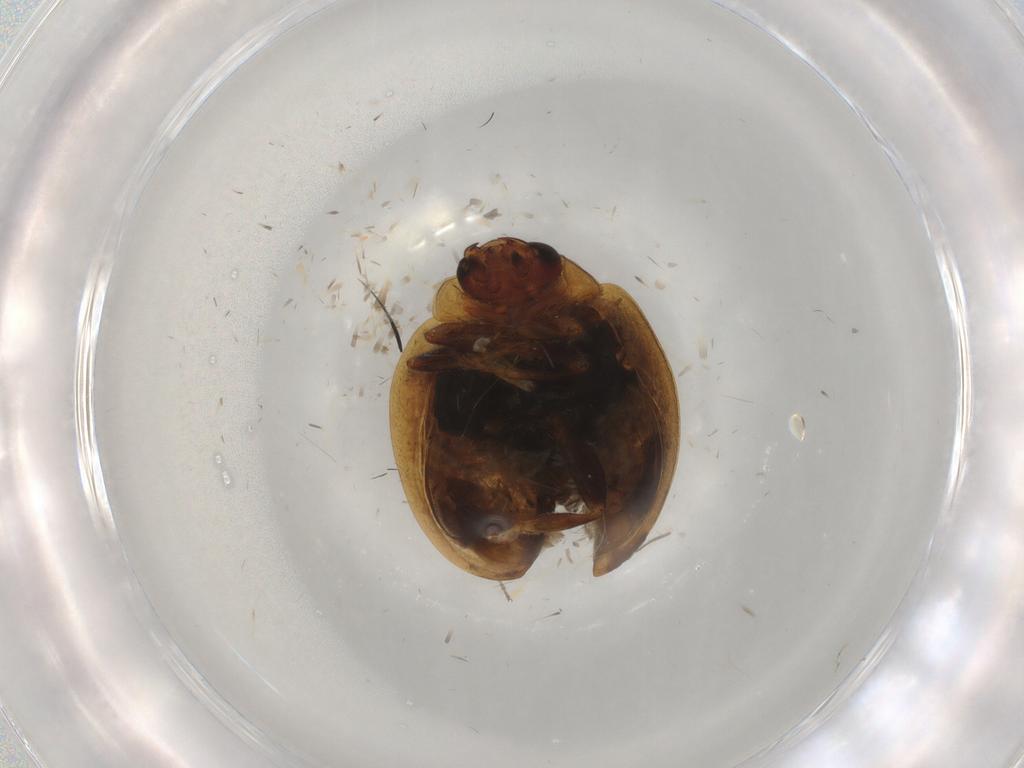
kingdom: Animalia
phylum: Arthropoda
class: Insecta
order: Coleoptera
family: Coccinellidae
